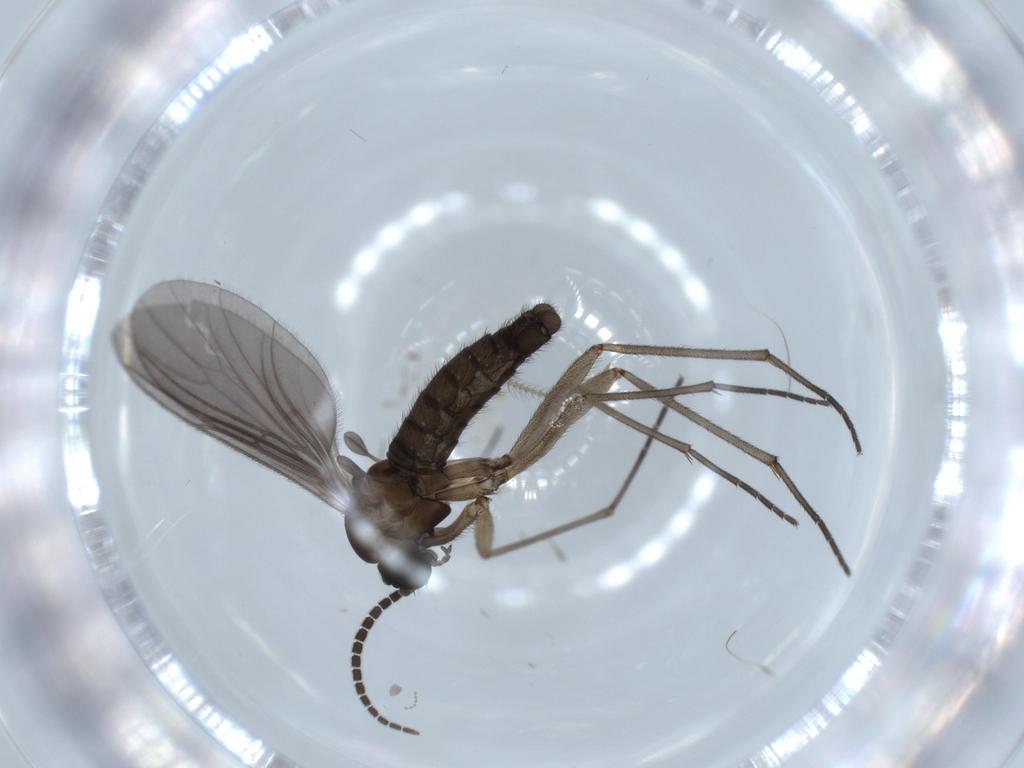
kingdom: Animalia
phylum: Arthropoda
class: Insecta
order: Diptera
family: Sciaridae
